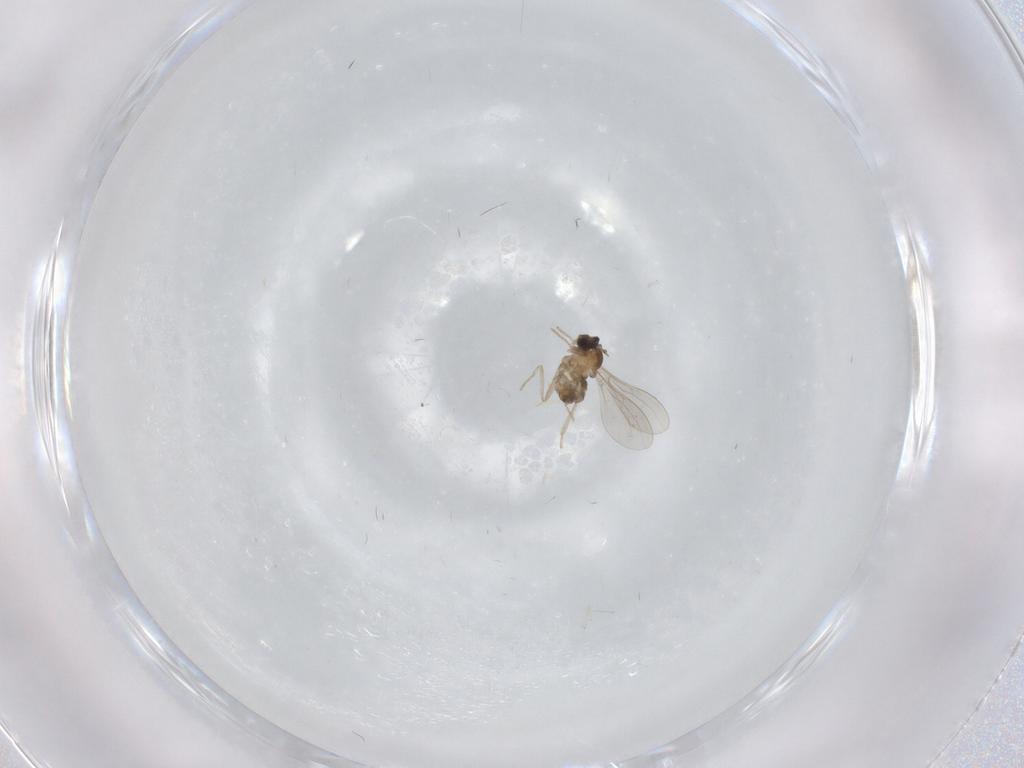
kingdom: Animalia
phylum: Arthropoda
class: Insecta
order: Diptera
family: Cecidomyiidae
